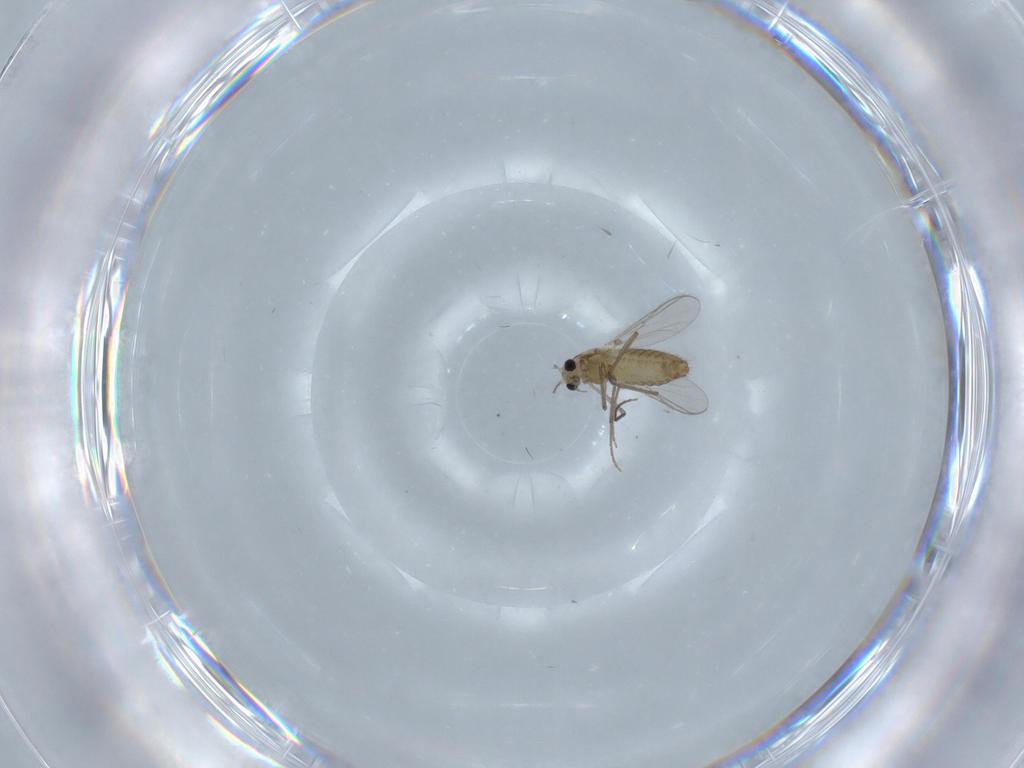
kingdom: Animalia
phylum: Arthropoda
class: Insecta
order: Diptera
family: Chironomidae
